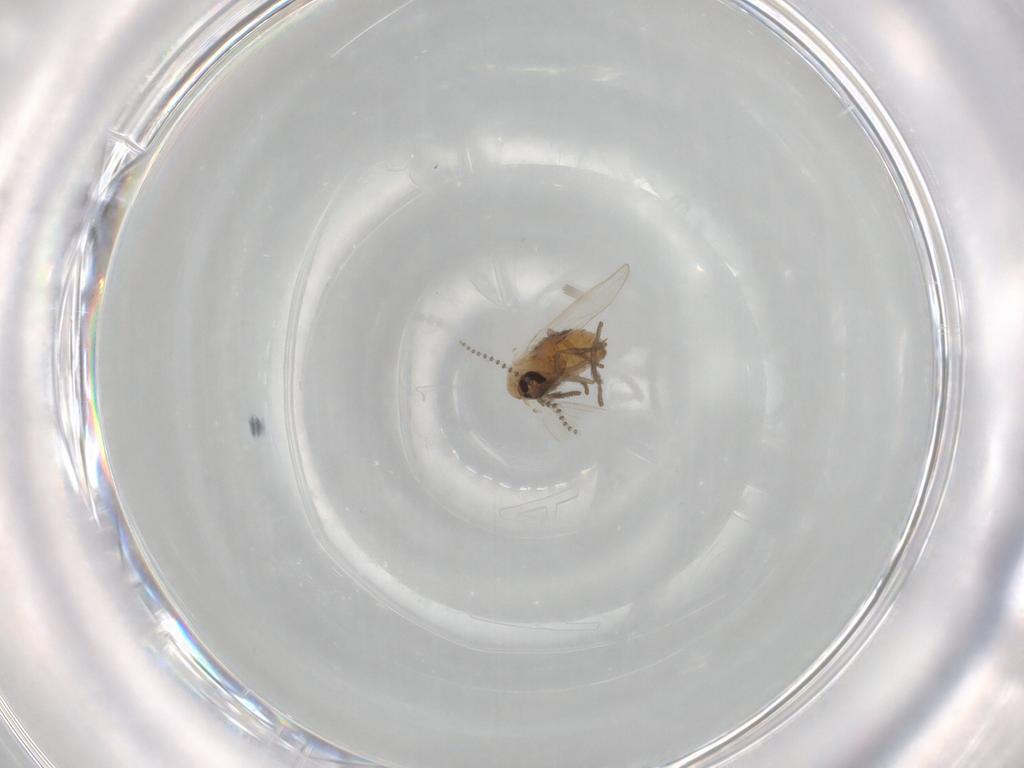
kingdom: Animalia
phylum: Arthropoda
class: Insecta
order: Diptera
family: Psychodidae
